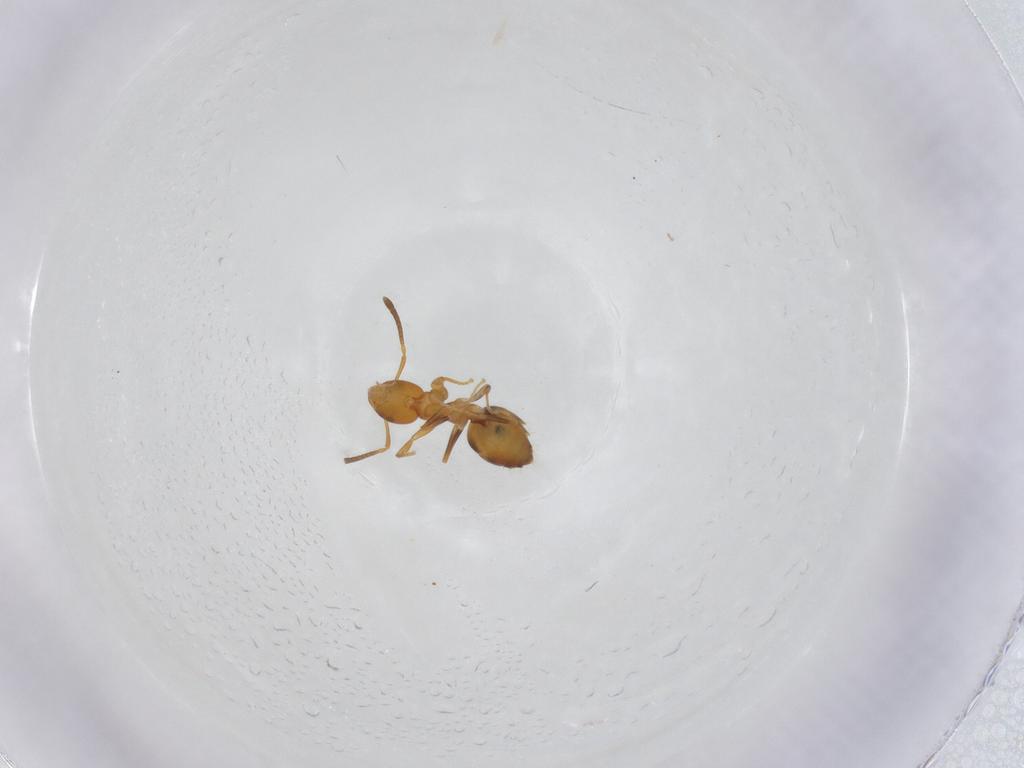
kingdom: Animalia
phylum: Arthropoda
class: Insecta
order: Hymenoptera
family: Formicidae
